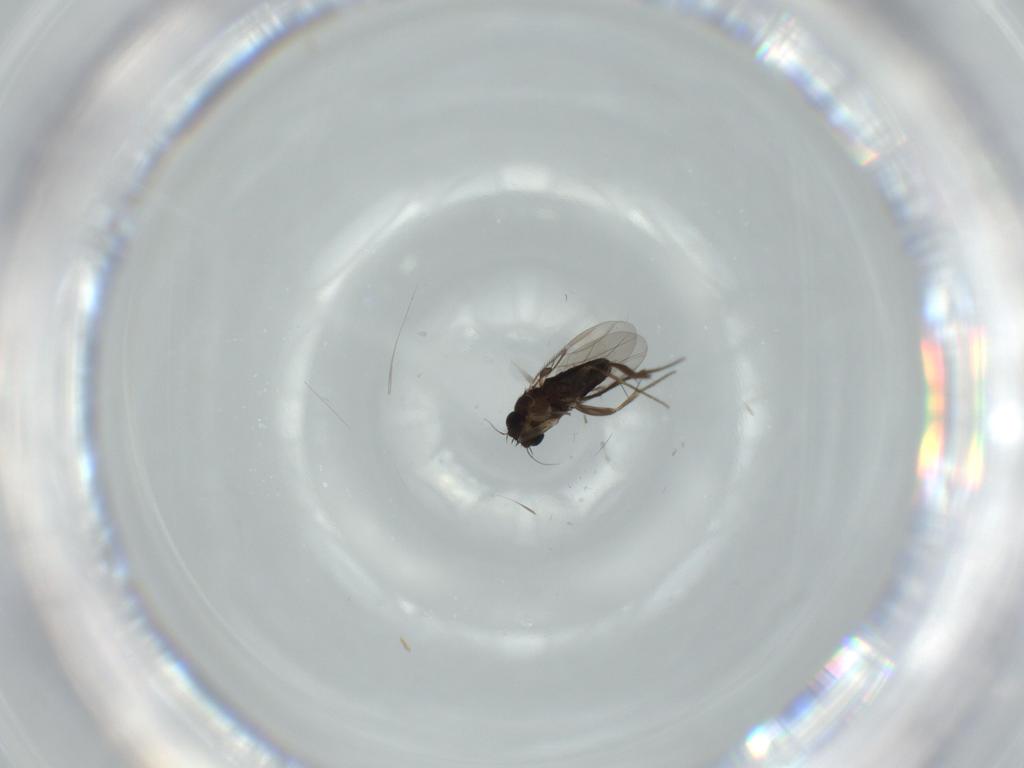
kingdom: Animalia
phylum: Arthropoda
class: Insecta
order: Diptera
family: Phoridae
